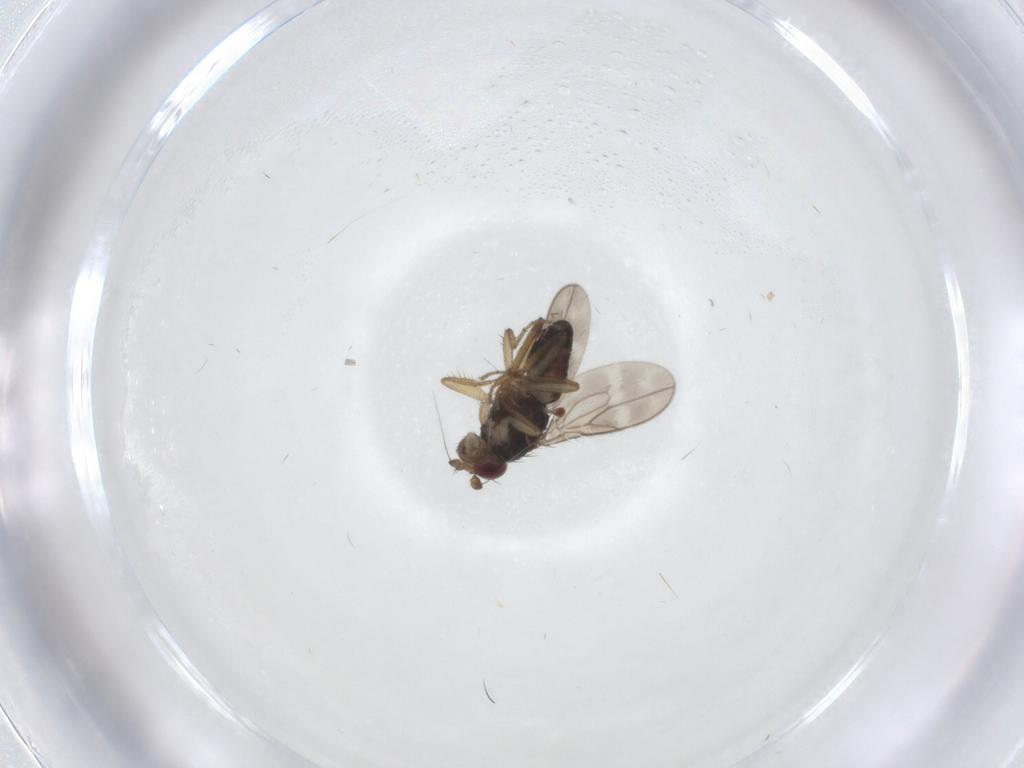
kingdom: Animalia
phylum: Arthropoda
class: Insecta
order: Diptera
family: Sphaeroceridae
